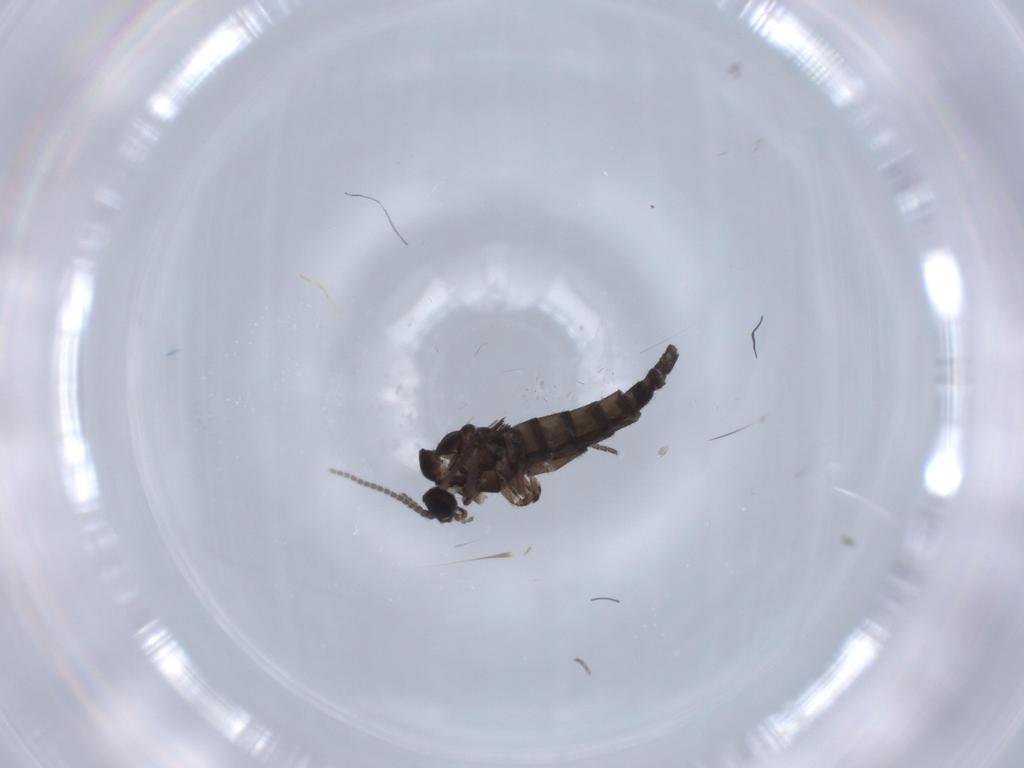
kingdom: Animalia
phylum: Arthropoda
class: Insecta
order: Diptera
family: Sciaridae
